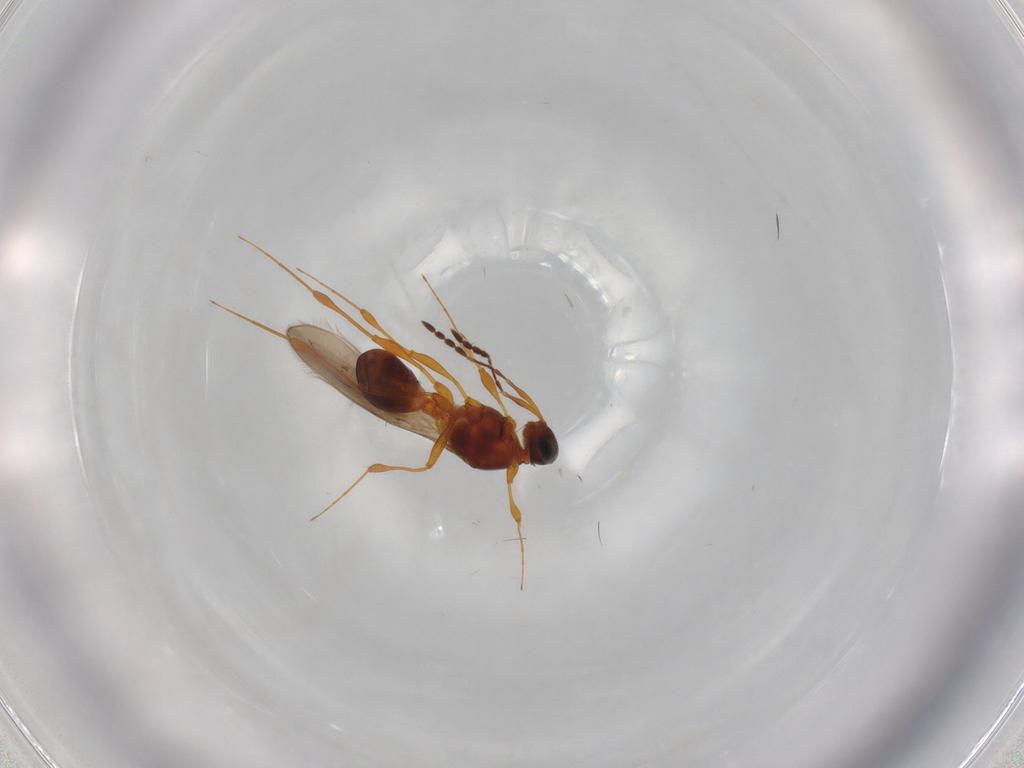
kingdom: Animalia
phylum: Arthropoda
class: Insecta
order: Hymenoptera
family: Platygastridae
